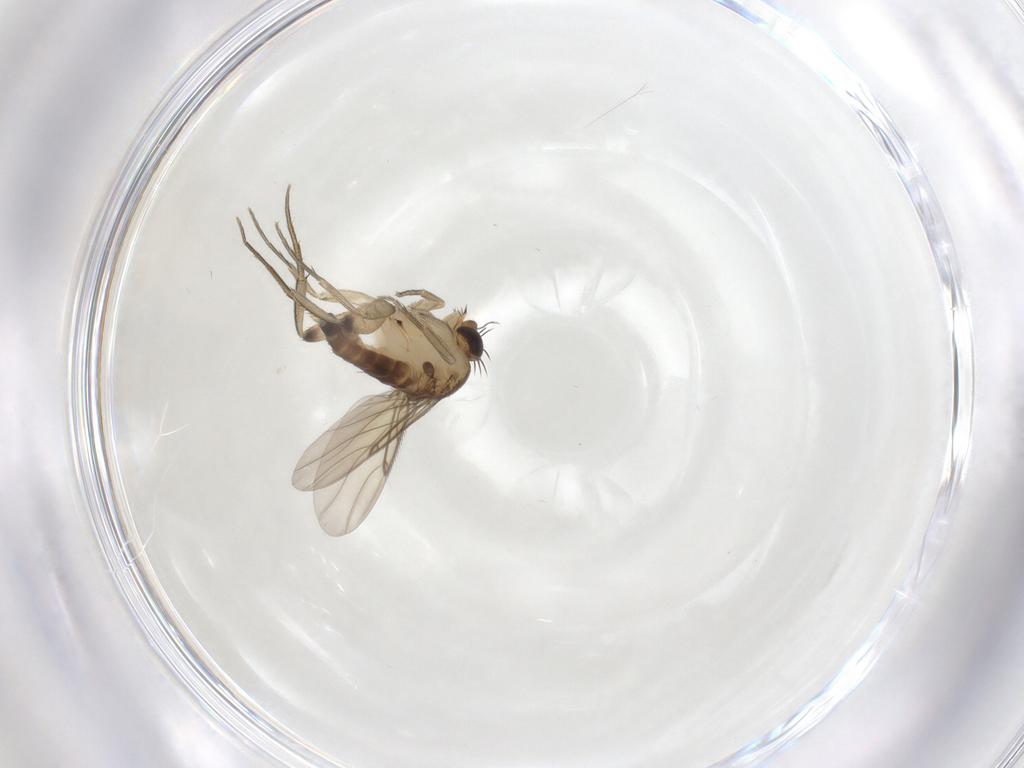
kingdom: Animalia
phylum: Arthropoda
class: Insecta
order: Diptera
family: Phoridae
